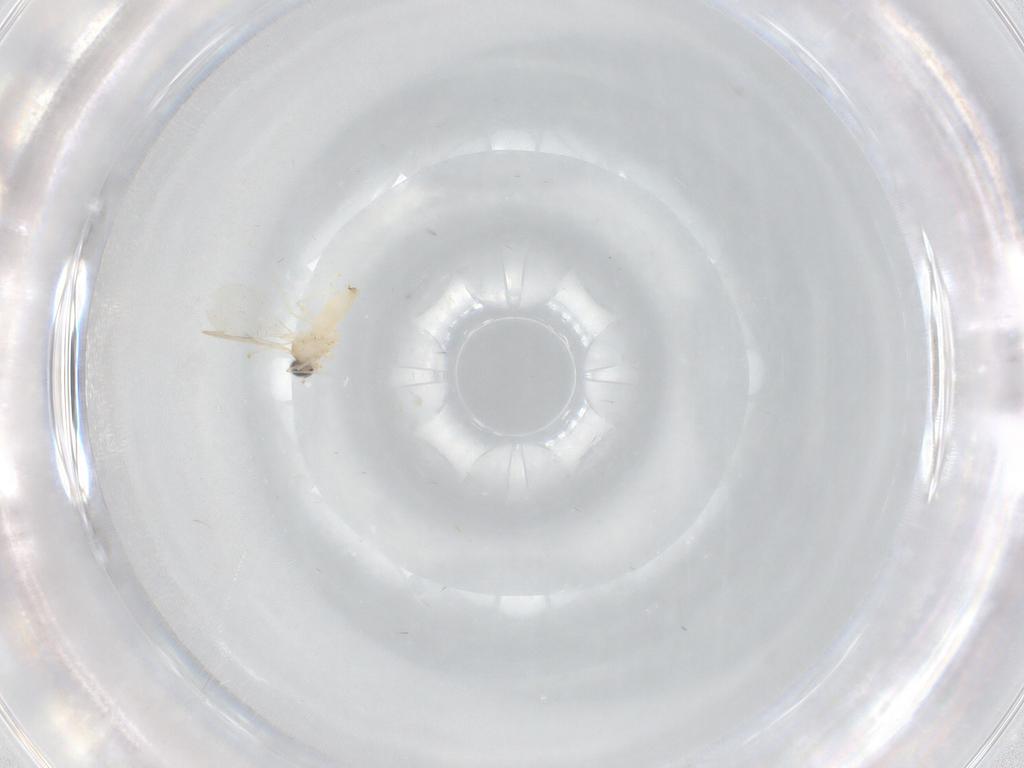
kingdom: Animalia
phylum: Arthropoda
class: Insecta
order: Diptera
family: Cecidomyiidae
